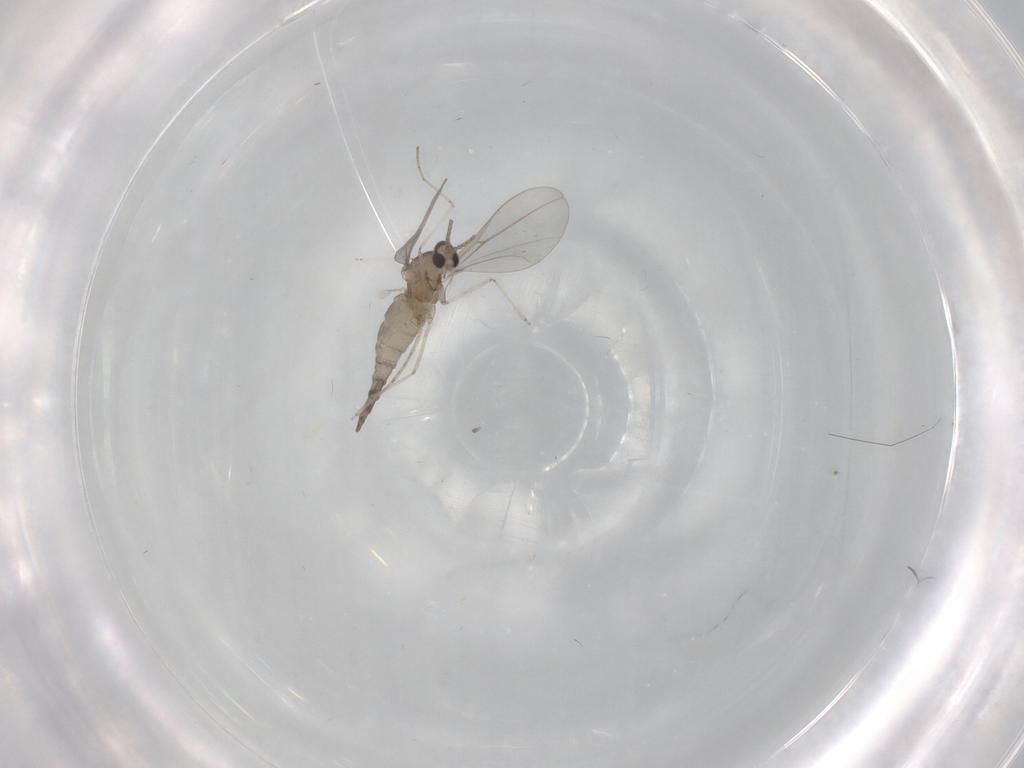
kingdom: Animalia
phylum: Arthropoda
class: Insecta
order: Diptera
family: Cecidomyiidae
